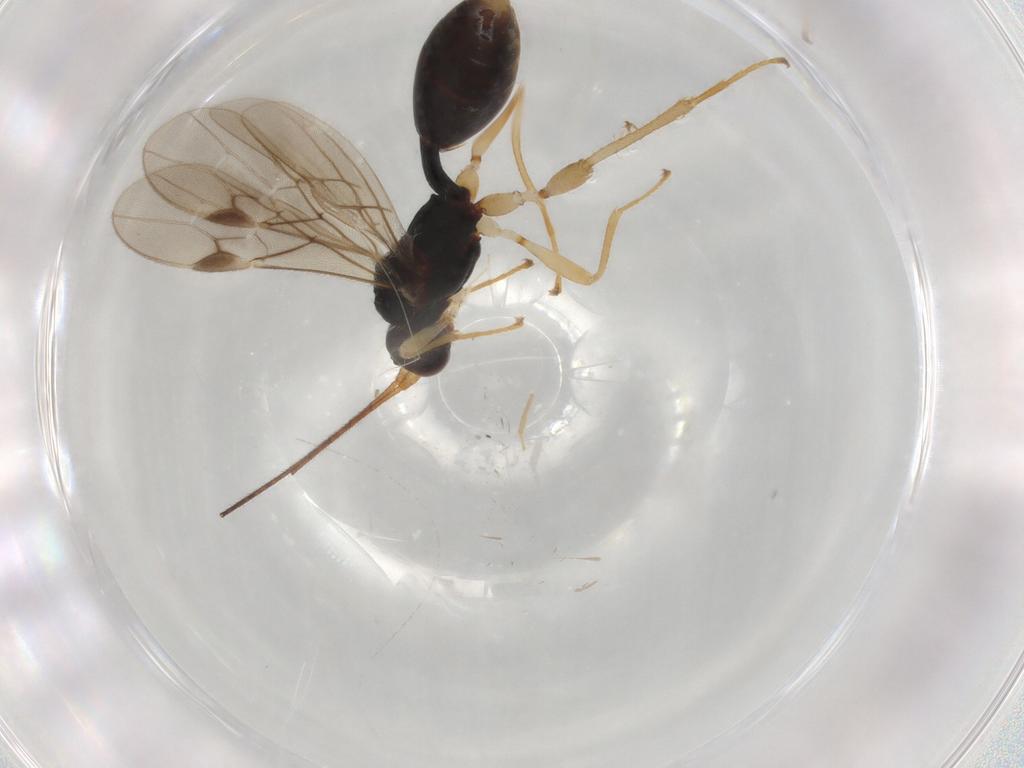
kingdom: Animalia
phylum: Arthropoda
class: Insecta
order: Hymenoptera
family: Braconidae
